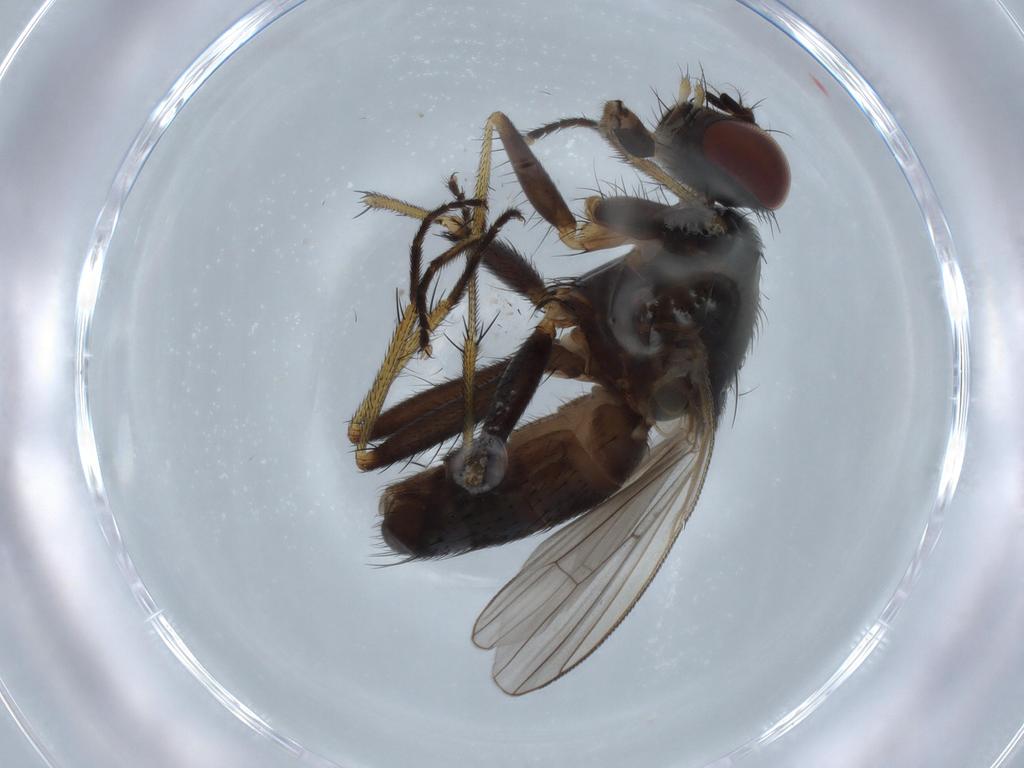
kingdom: Animalia
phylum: Arthropoda
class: Insecta
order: Diptera
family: Muscidae
